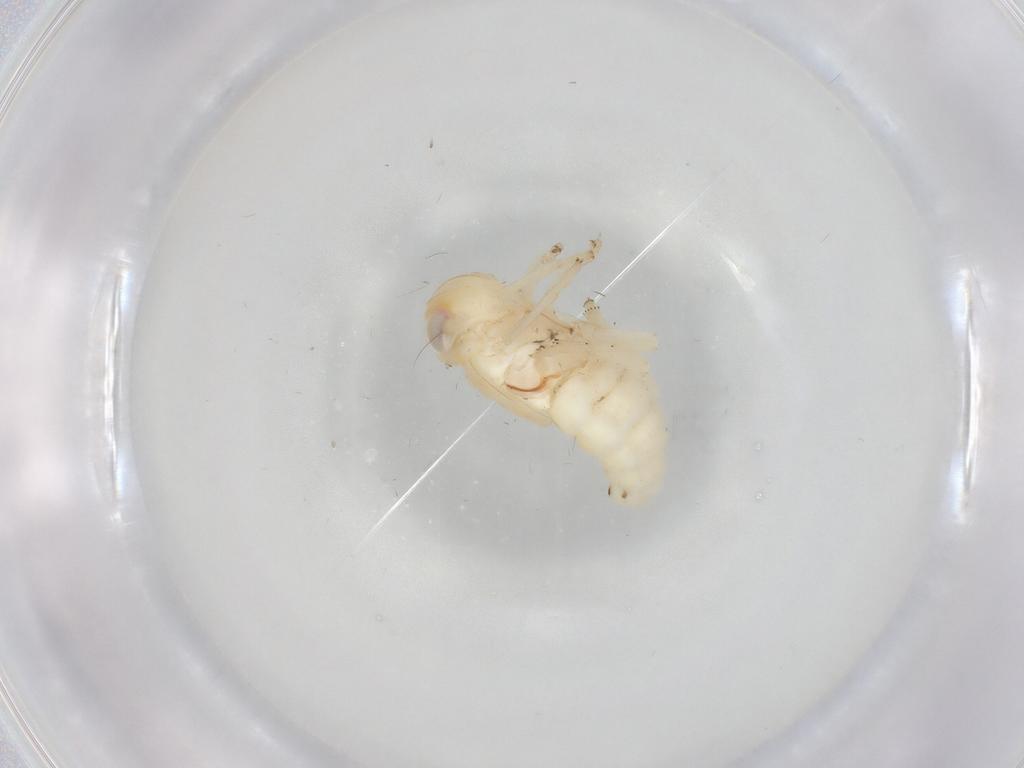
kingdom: Animalia
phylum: Arthropoda
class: Insecta
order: Hemiptera
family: Nogodinidae
